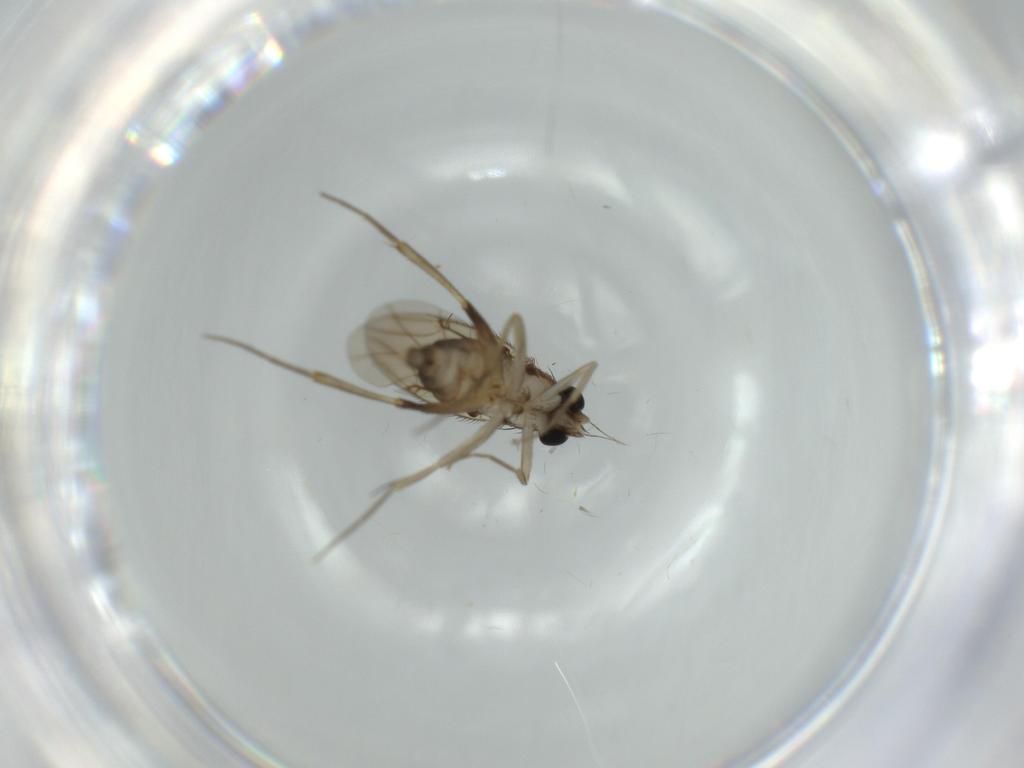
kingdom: Animalia
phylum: Arthropoda
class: Insecta
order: Diptera
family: Phoridae
